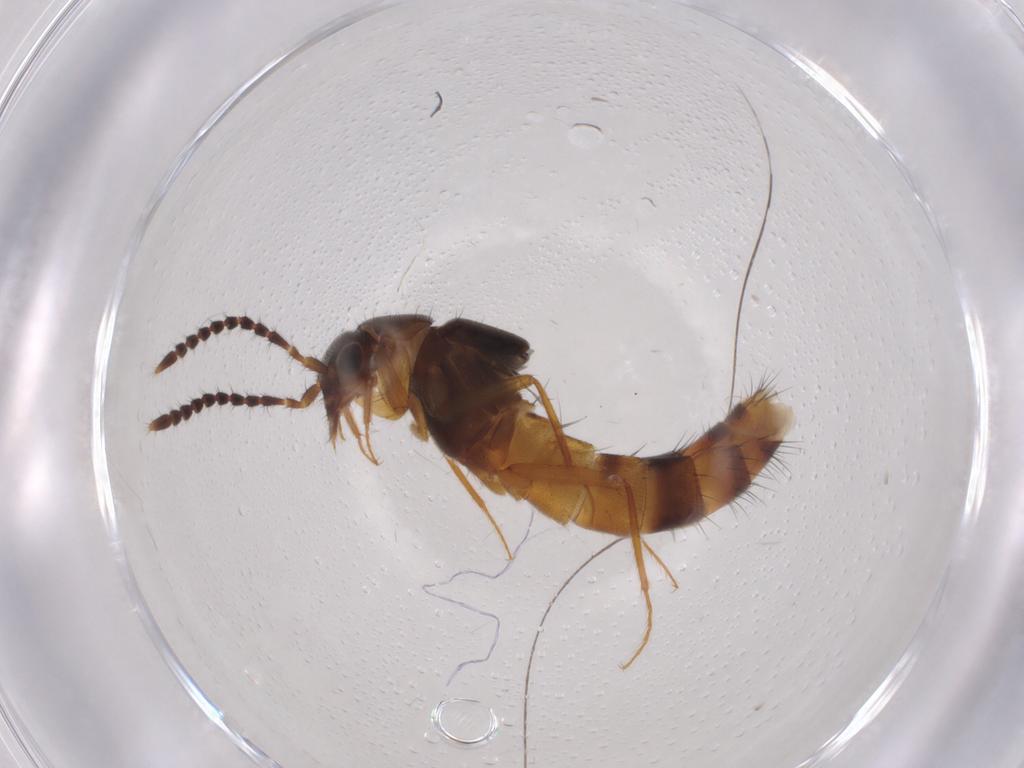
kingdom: Animalia
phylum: Arthropoda
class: Insecta
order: Coleoptera
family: Staphylinidae
